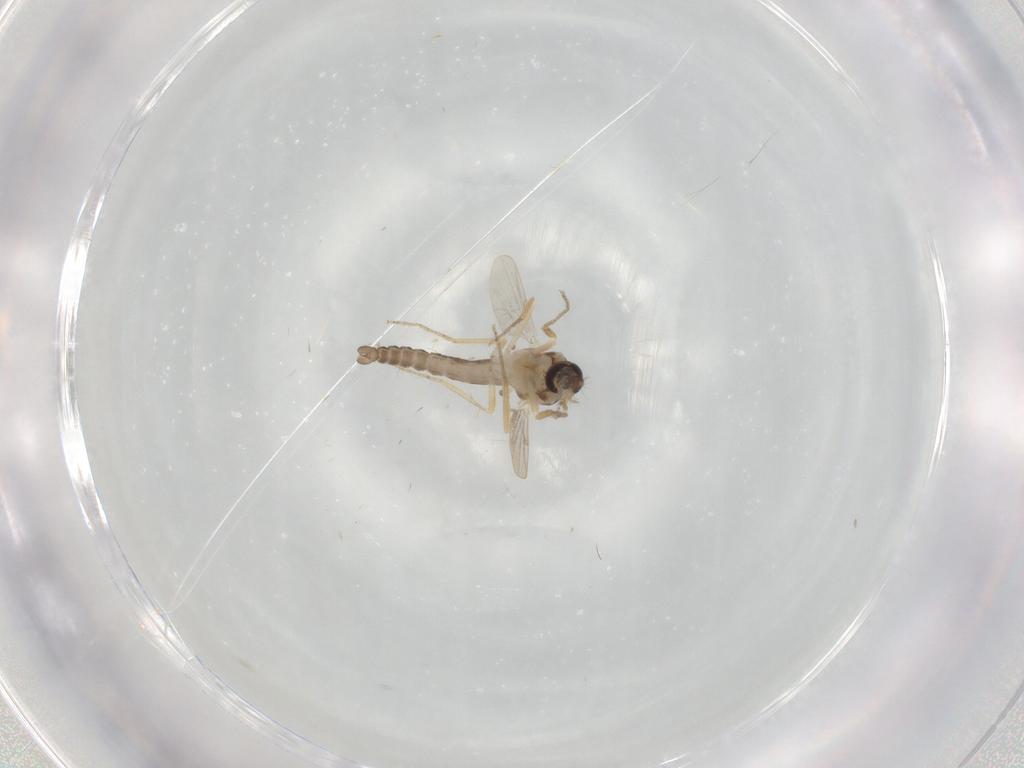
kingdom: Animalia
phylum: Arthropoda
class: Insecta
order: Diptera
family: Ceratopogonidae
